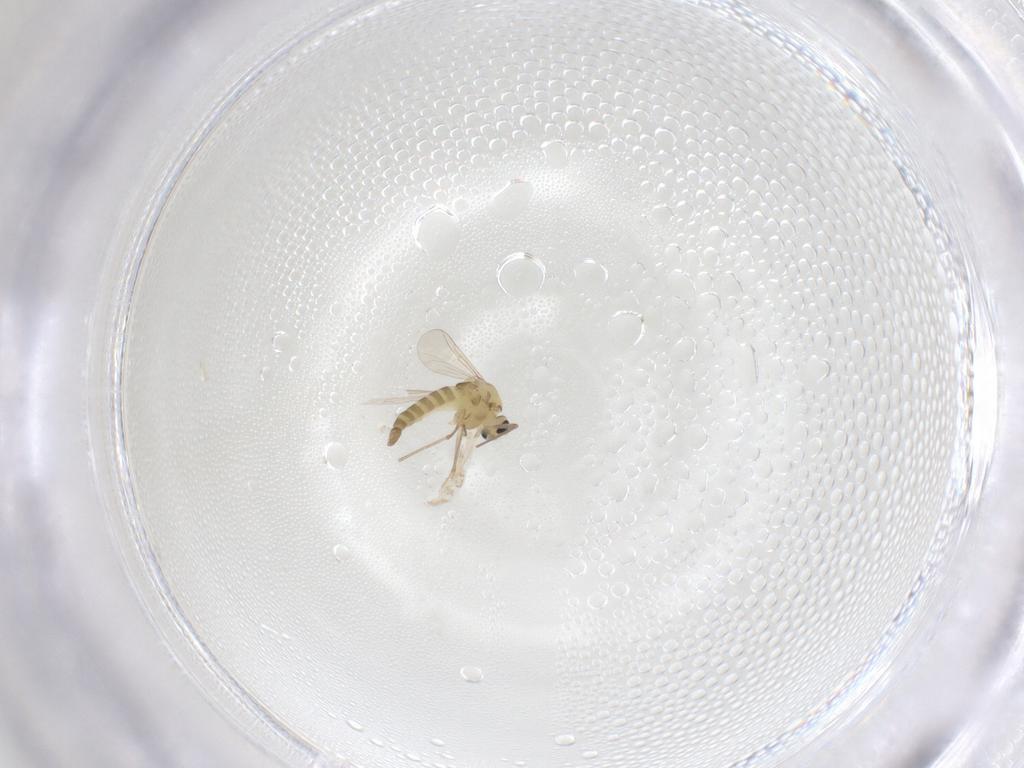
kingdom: Animalia
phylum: Arthropoda
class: Insecta
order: Diptera
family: Chironomidae
